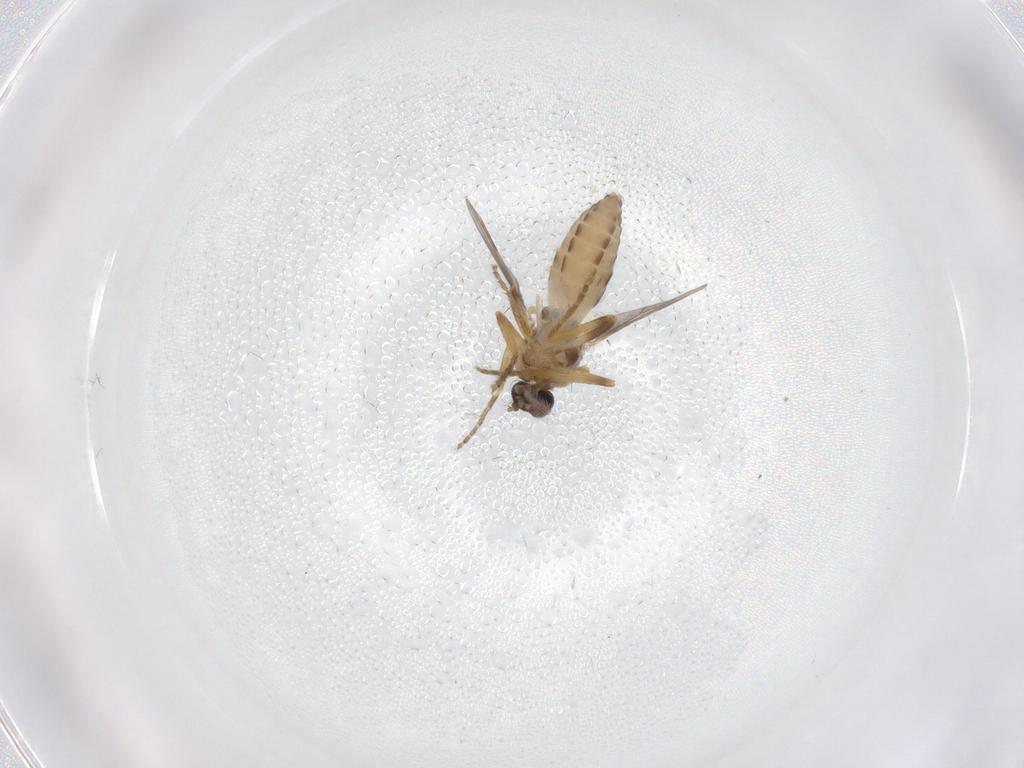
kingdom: Animalia
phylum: Arthropoda
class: Insecta
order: Diptera
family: Ceratopogonidae
